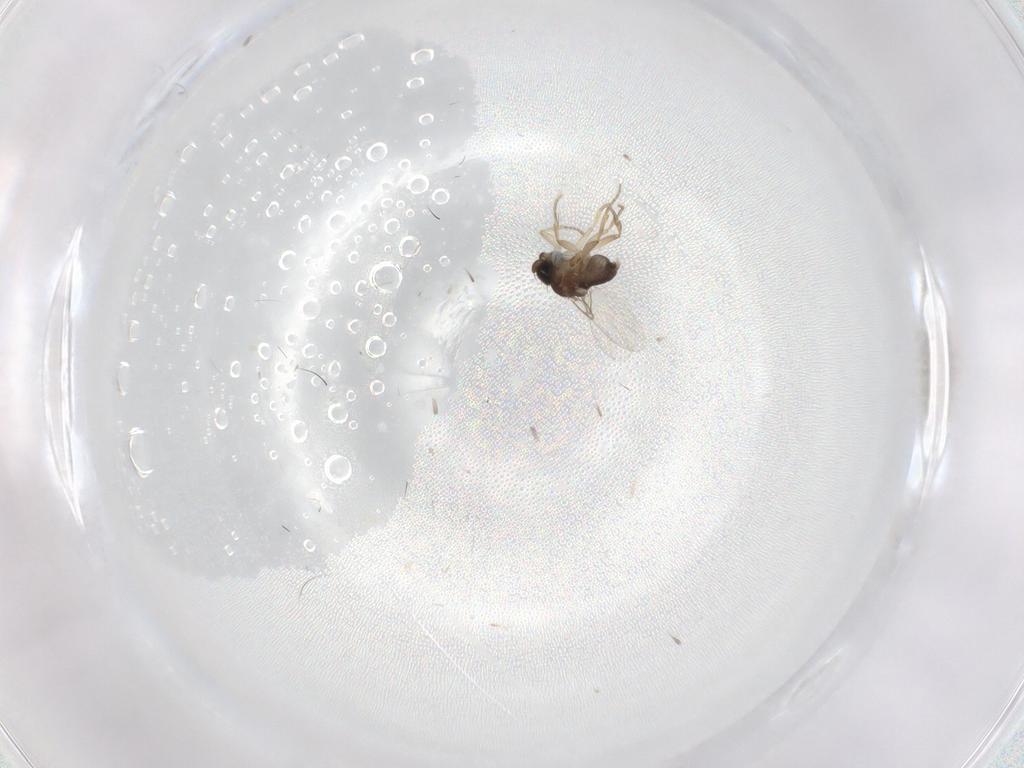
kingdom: Animalia
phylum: Arthropoda
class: Insecta
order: Diptera
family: Phoridae
